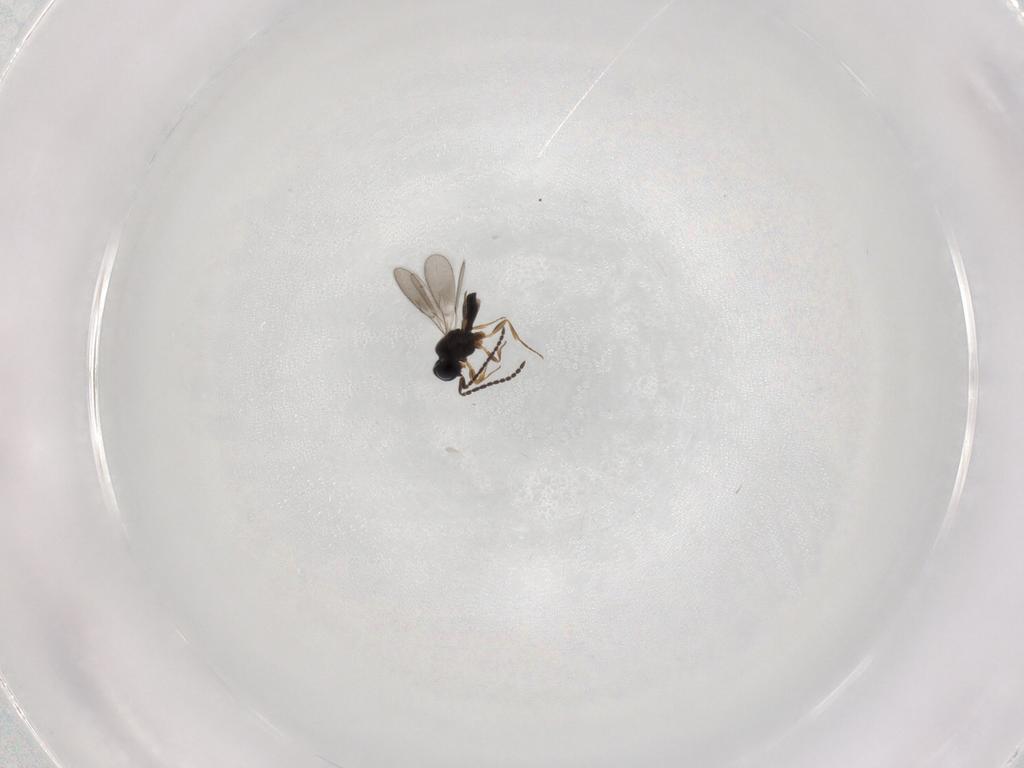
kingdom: Animalia
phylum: Arthropoda
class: Insecta
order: Hymenoptera
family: Scelionidae
